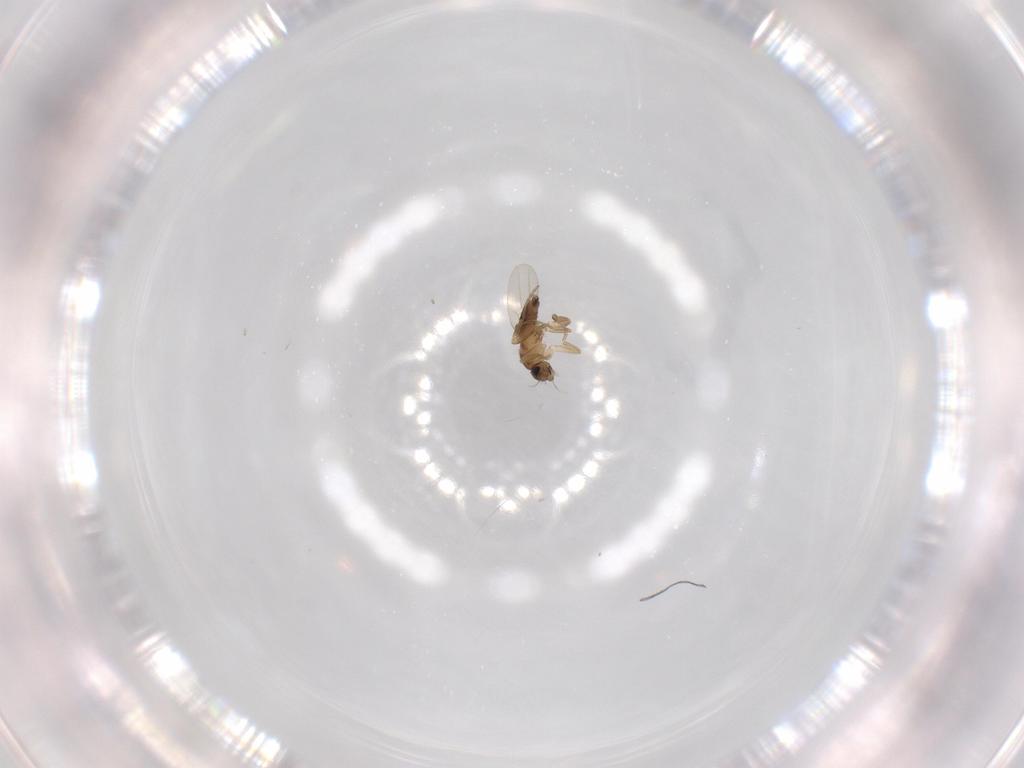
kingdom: Animalia
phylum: Arthropoda
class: Insecta
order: Diptera
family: Phoridae
